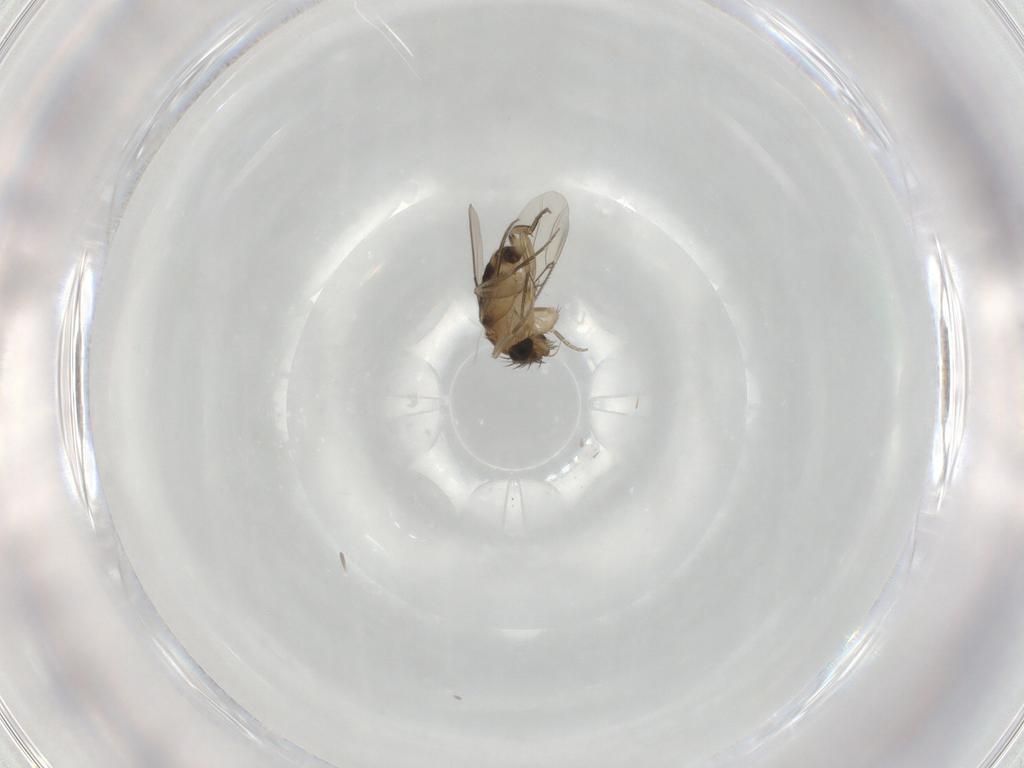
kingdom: Animalia
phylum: Arthropoda
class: Insecta
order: Diptera
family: Phoridae
